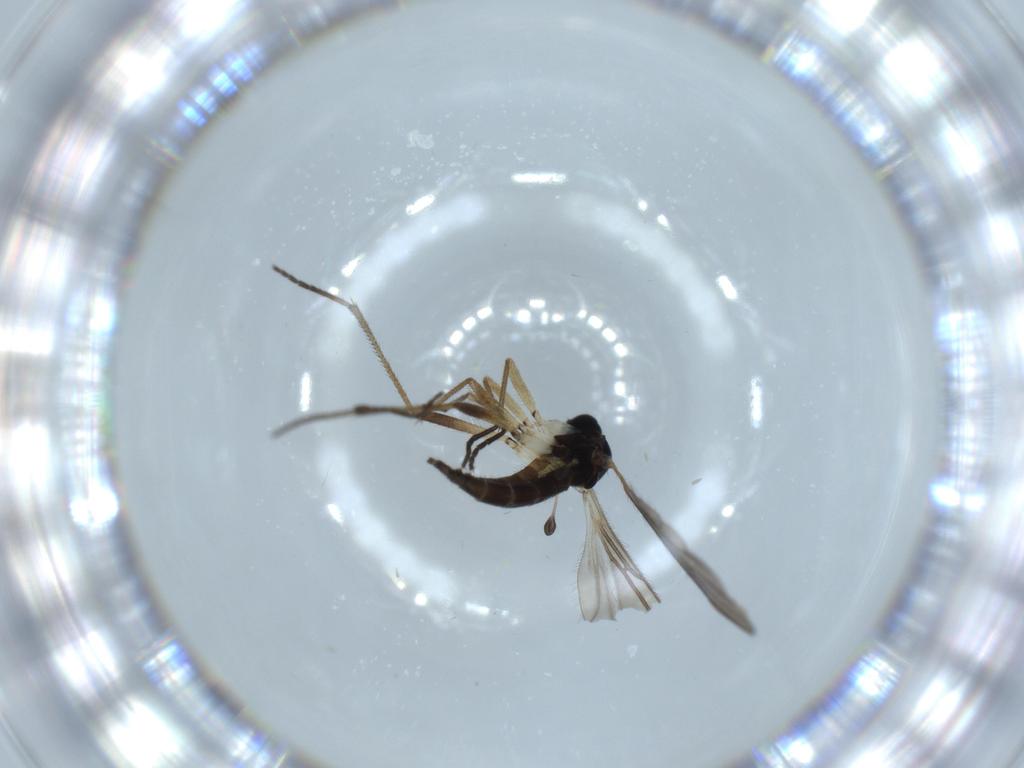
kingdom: Animalia
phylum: Arthropoda
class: Insecta
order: Diptera
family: Sciaridae
